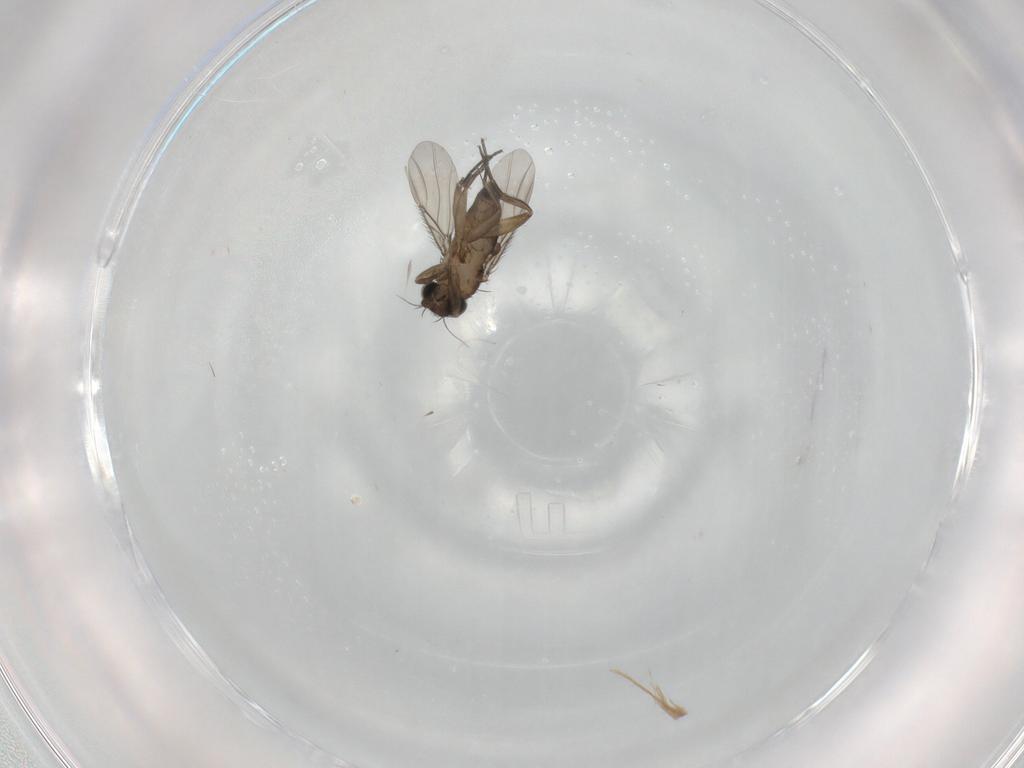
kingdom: Animalia
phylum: Arthropoda
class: Insecta
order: Diptera
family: Phoridae
